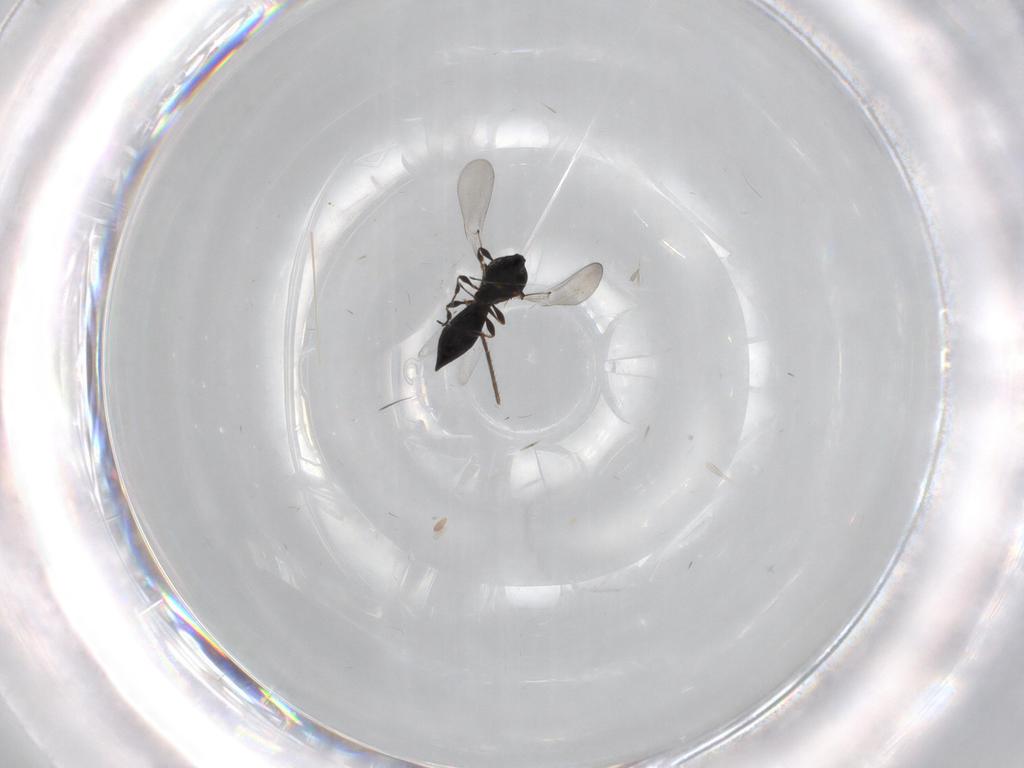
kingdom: Animalia
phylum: Arthropoda
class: Insecta
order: Hymenoptera
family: Platygastridae
